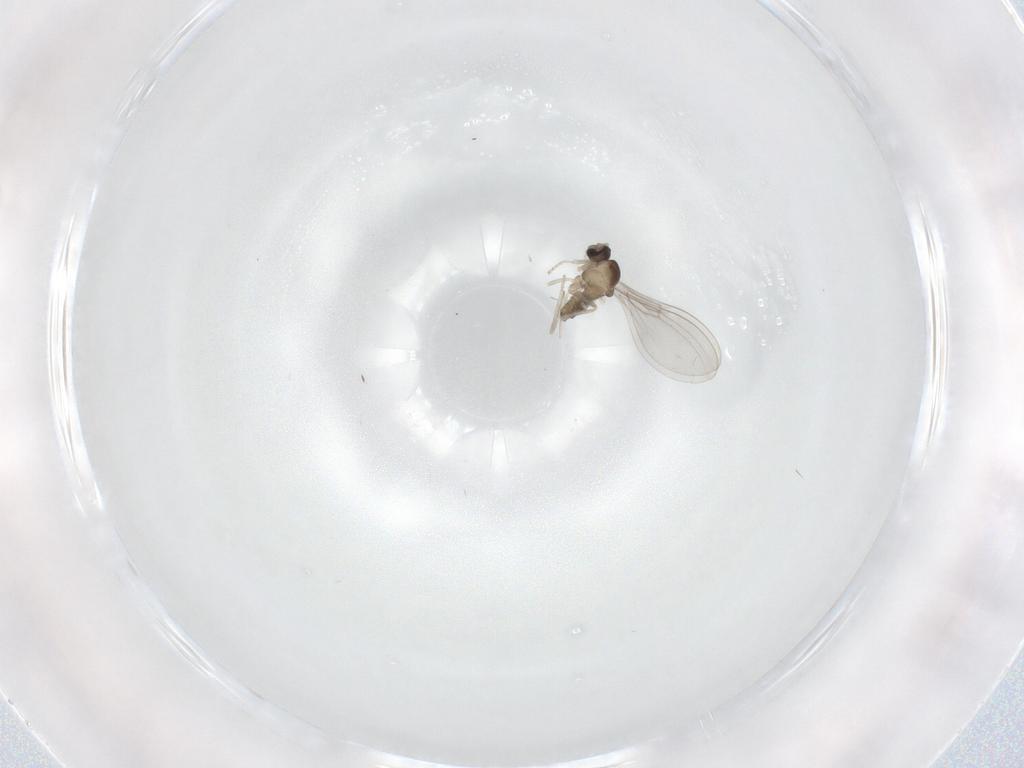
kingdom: Animalia
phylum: Arthropoda
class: Insecta
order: Diptera
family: Cecidomyiidae
